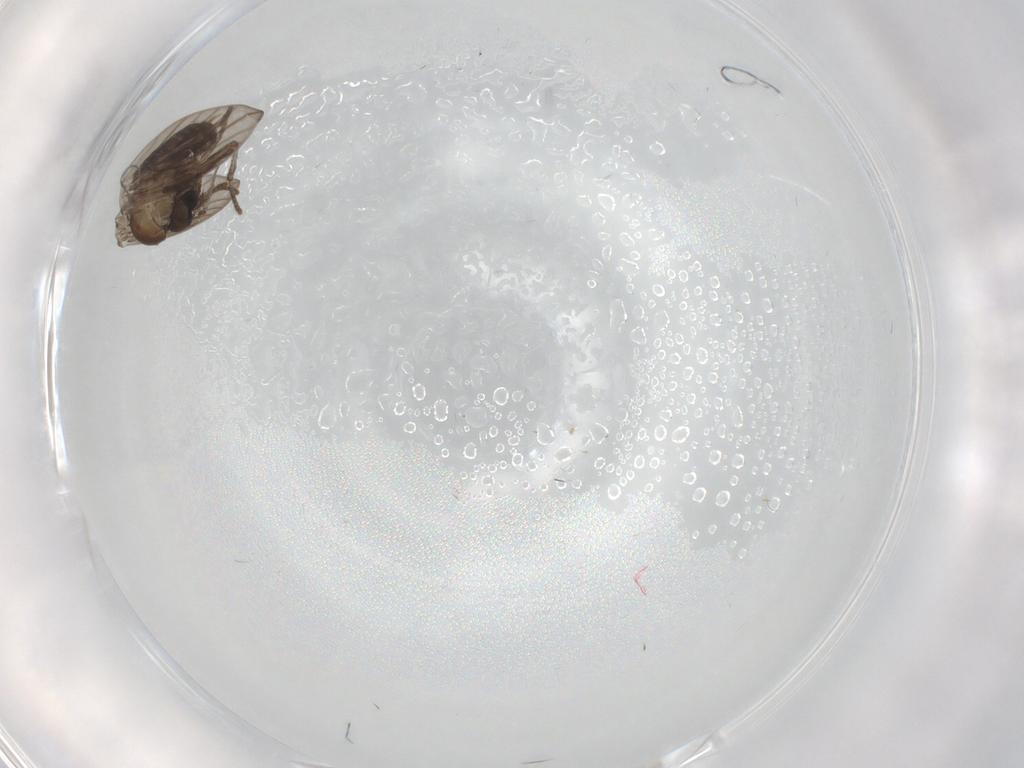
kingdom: Animalia
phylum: Arthropoda
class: Insecta
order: Diptera
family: Psychodidae
